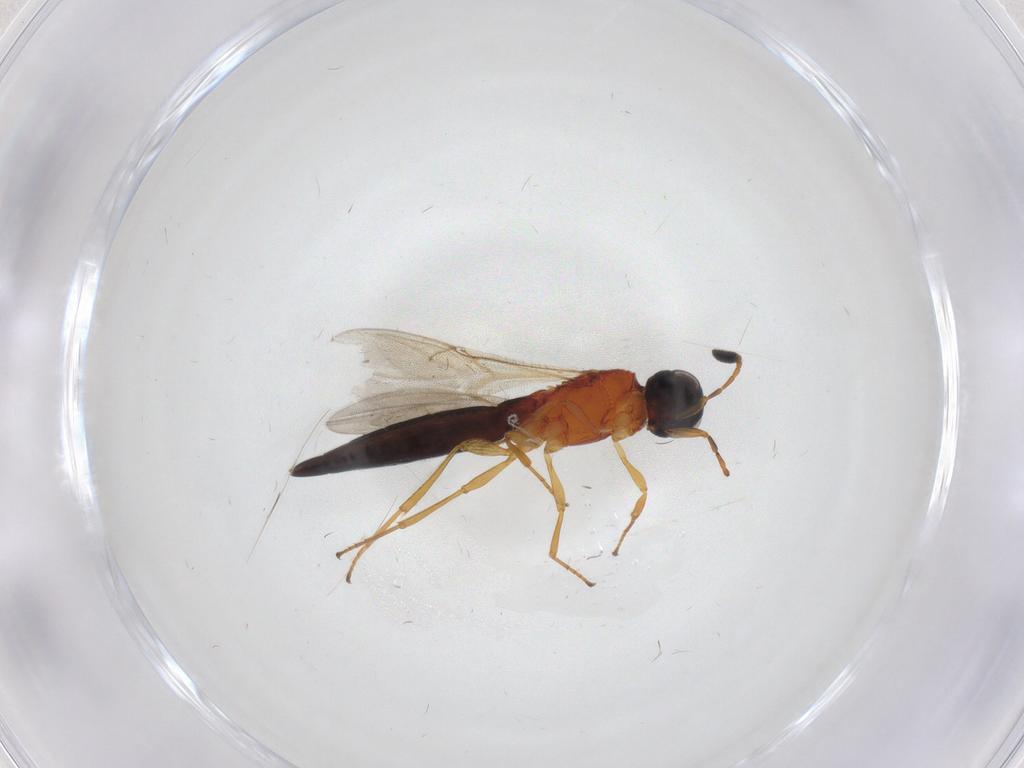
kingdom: Animalia
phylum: Arthropoda
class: Insecta
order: Hymenoptera
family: Scelionidae
